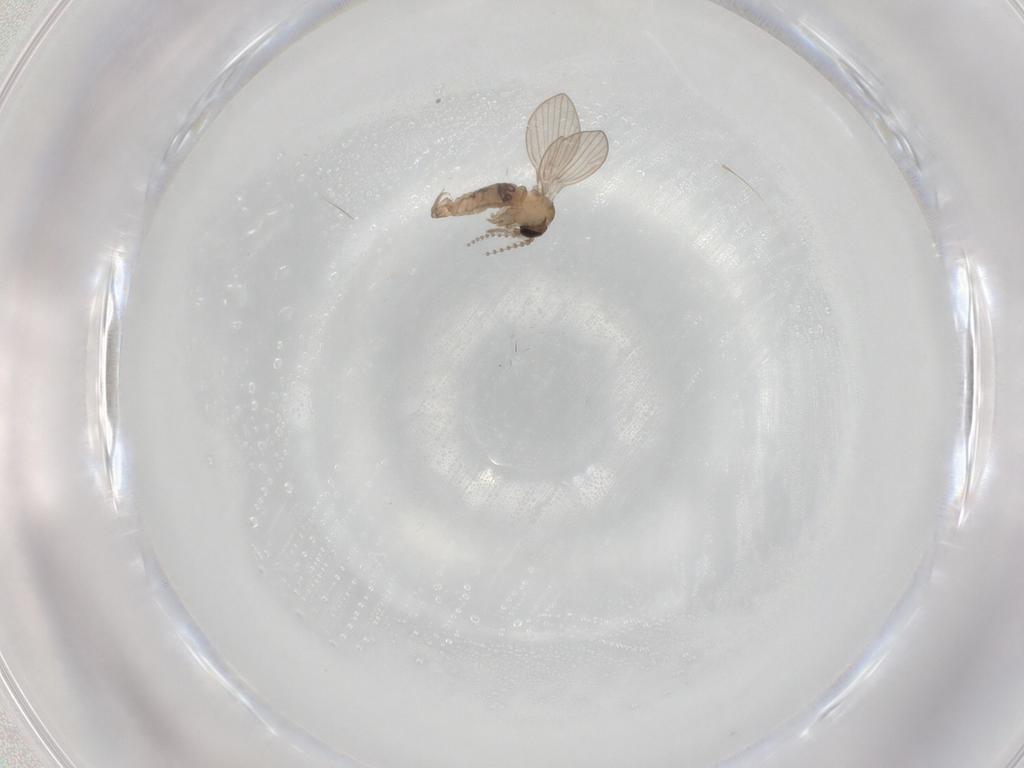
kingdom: Animalia
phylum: Arthropoda
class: Insecta
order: Diptera
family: Psychodidae
